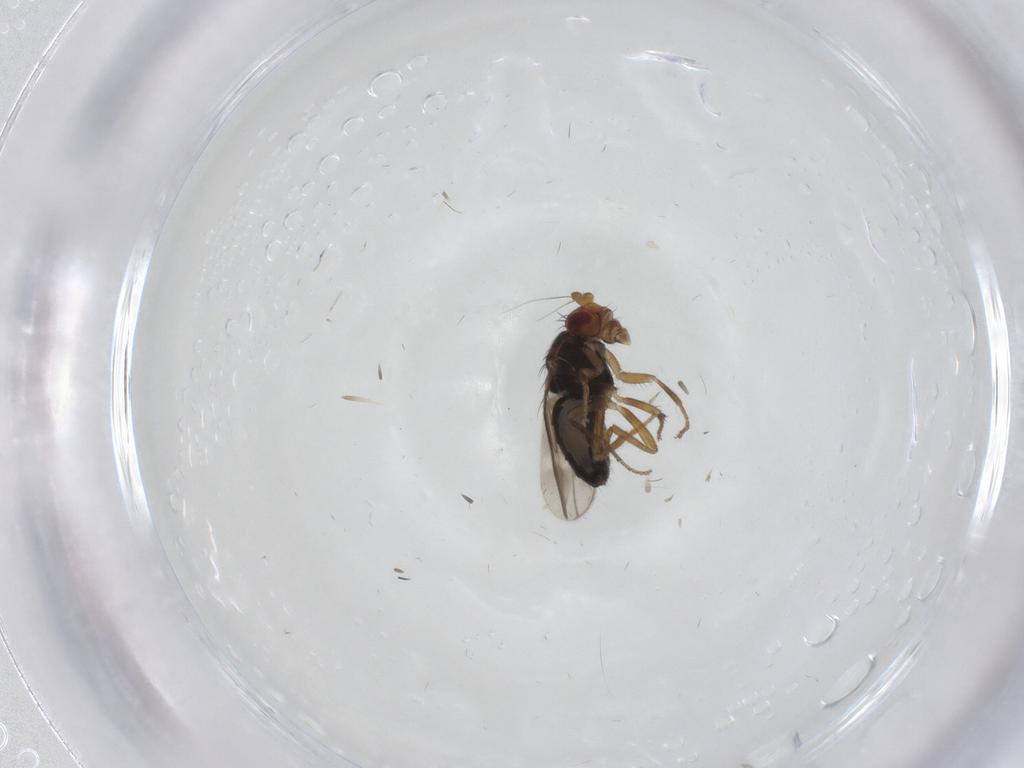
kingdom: Animalia
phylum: Arthropoda
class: Insecta
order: Diptera
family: Sphaeroceridae
